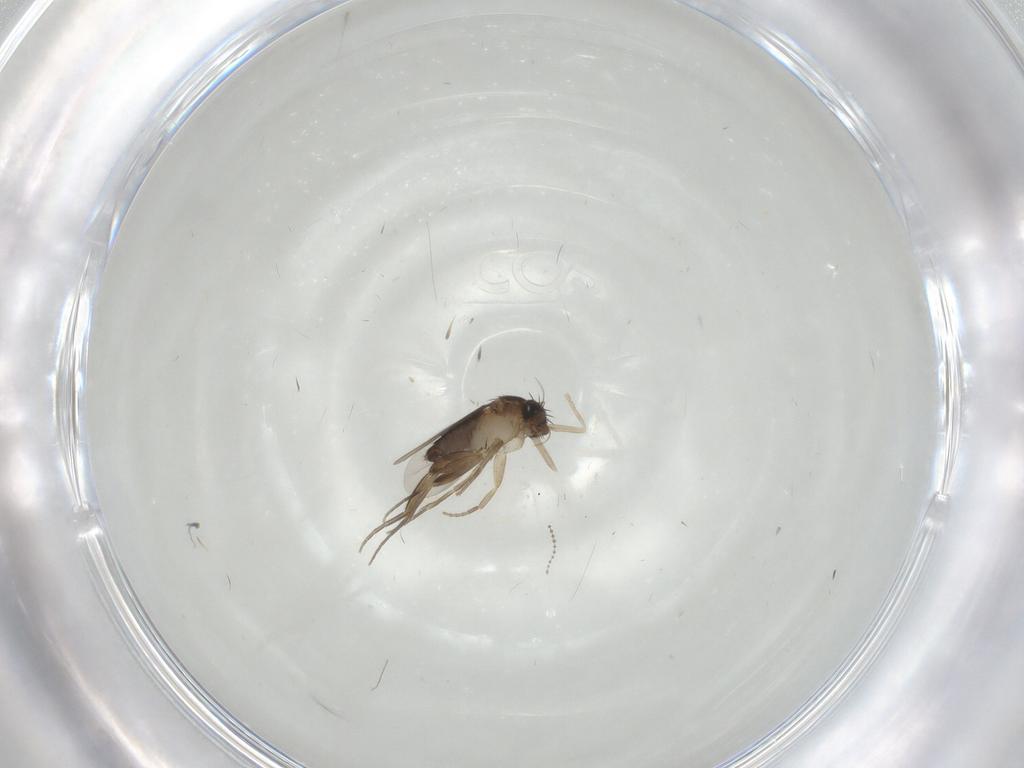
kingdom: Animalia
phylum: Arthropoda
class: Insecta
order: Diptera
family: Phoridae
